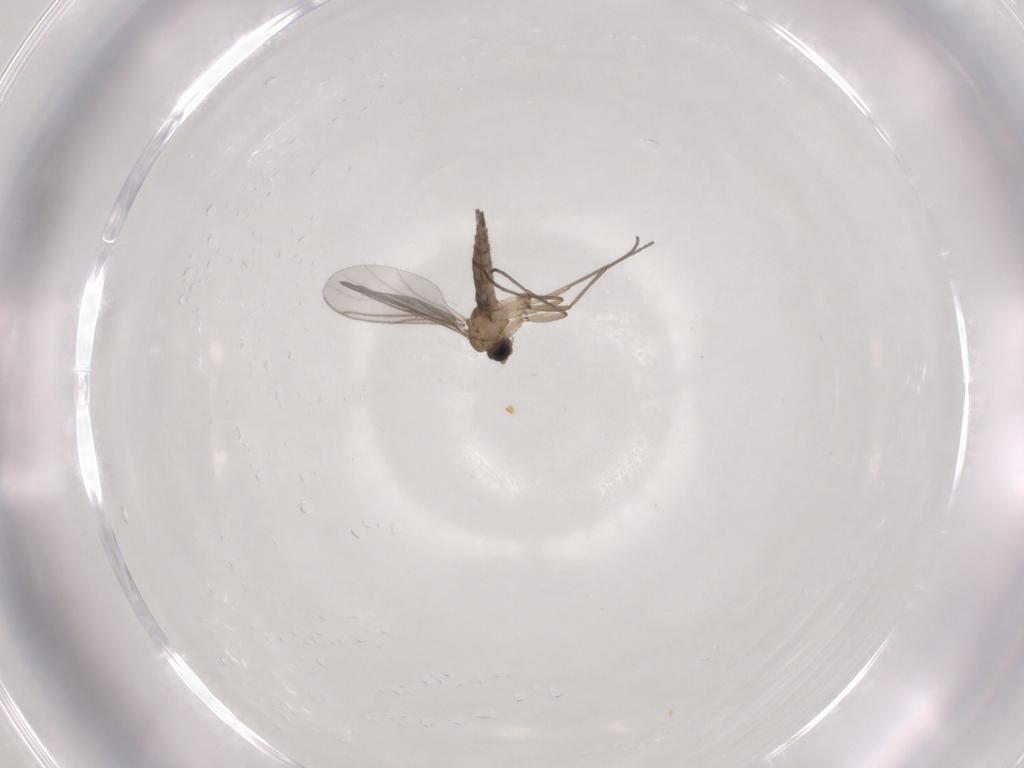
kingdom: Animalia
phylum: Arthropoda
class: Insecta
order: Diptera
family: Sciaridae
